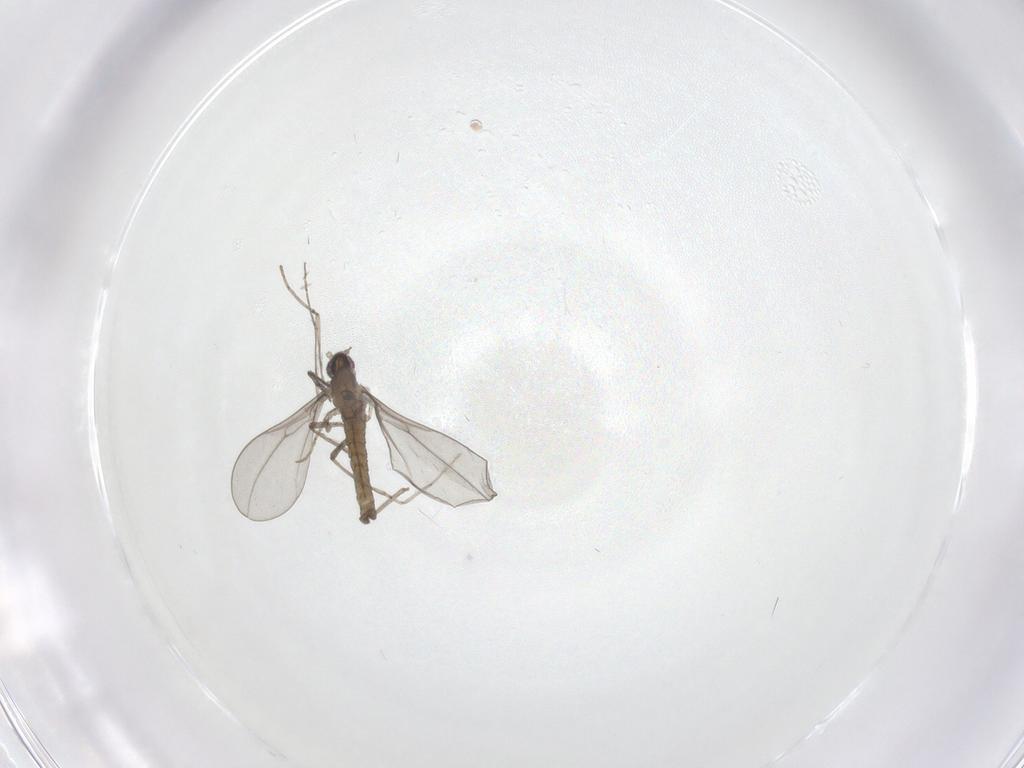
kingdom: Animalia
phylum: Arthropoda
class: Insecta
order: Diptera
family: Cecidomyiidae
